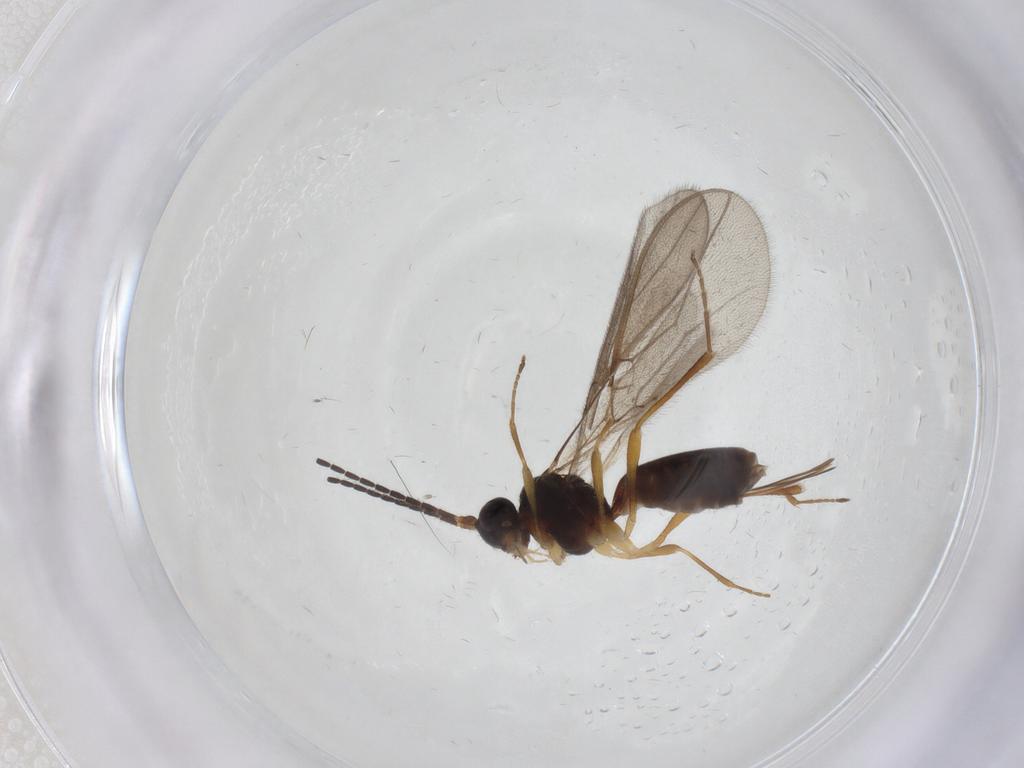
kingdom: Animalia
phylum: Arthropoda
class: Insecta
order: Hymenoptera
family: Braconidae
